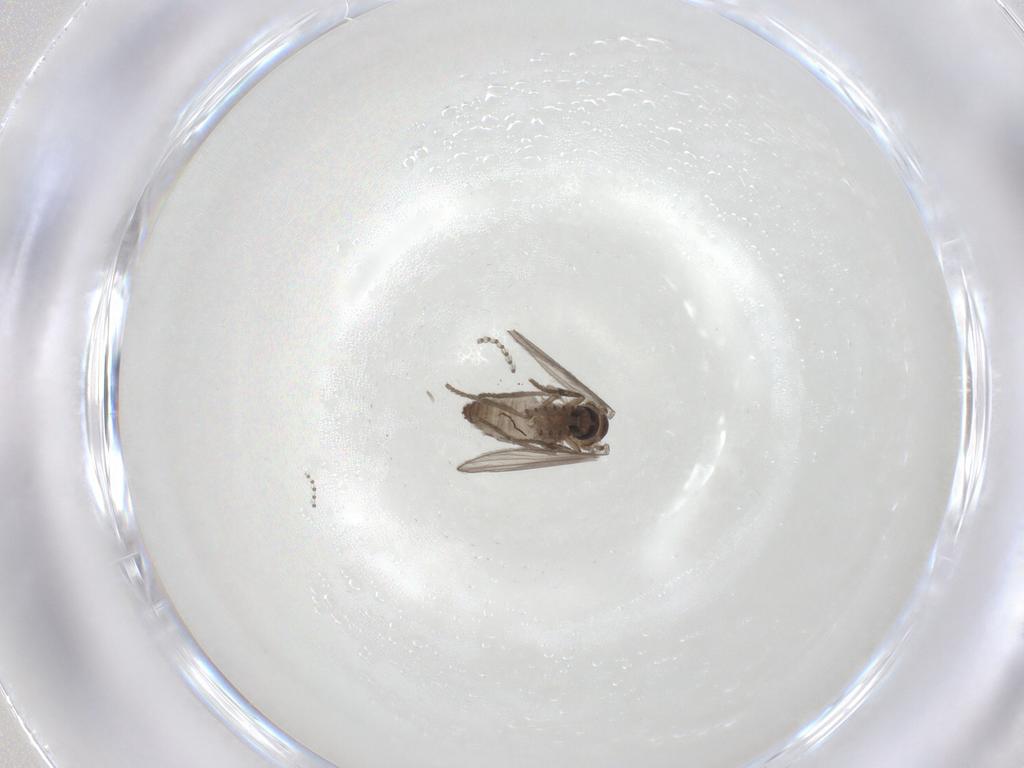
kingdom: Animalia
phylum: Arthropoda
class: Insecta
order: Diptera
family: Psychodidae
